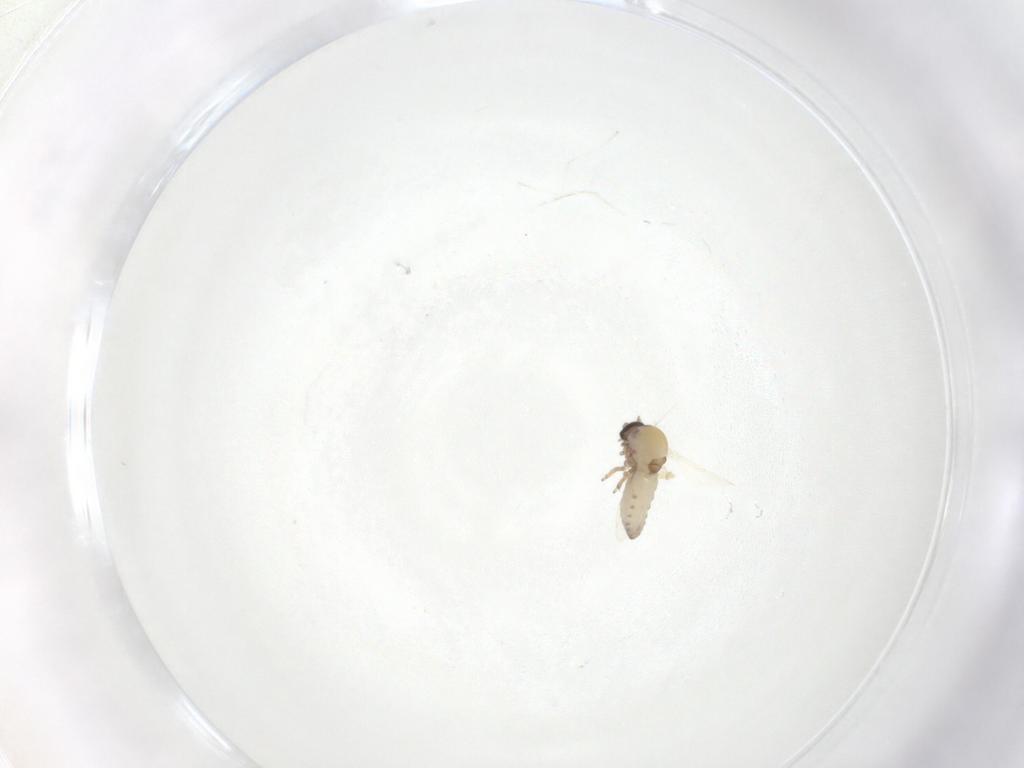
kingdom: Animalia
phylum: Arthropoda
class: Insecta
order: Diptera
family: Cecidomyiidae
